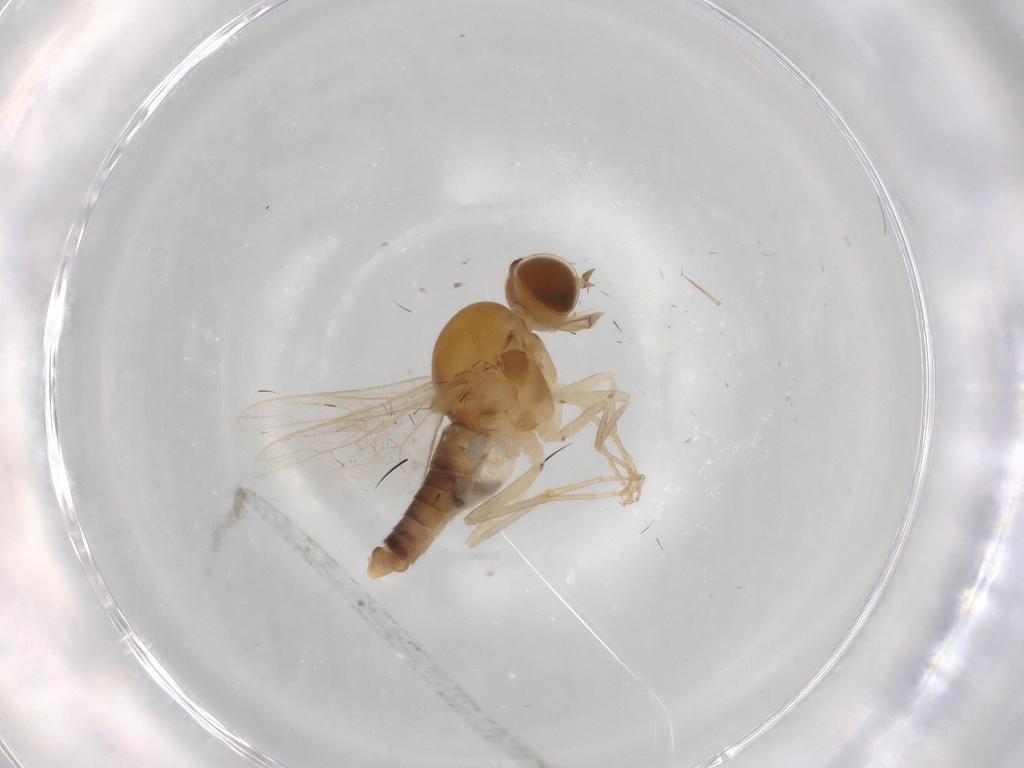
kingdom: Animalia
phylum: Arthropoda
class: Insecta
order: Diptera
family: Empididae
